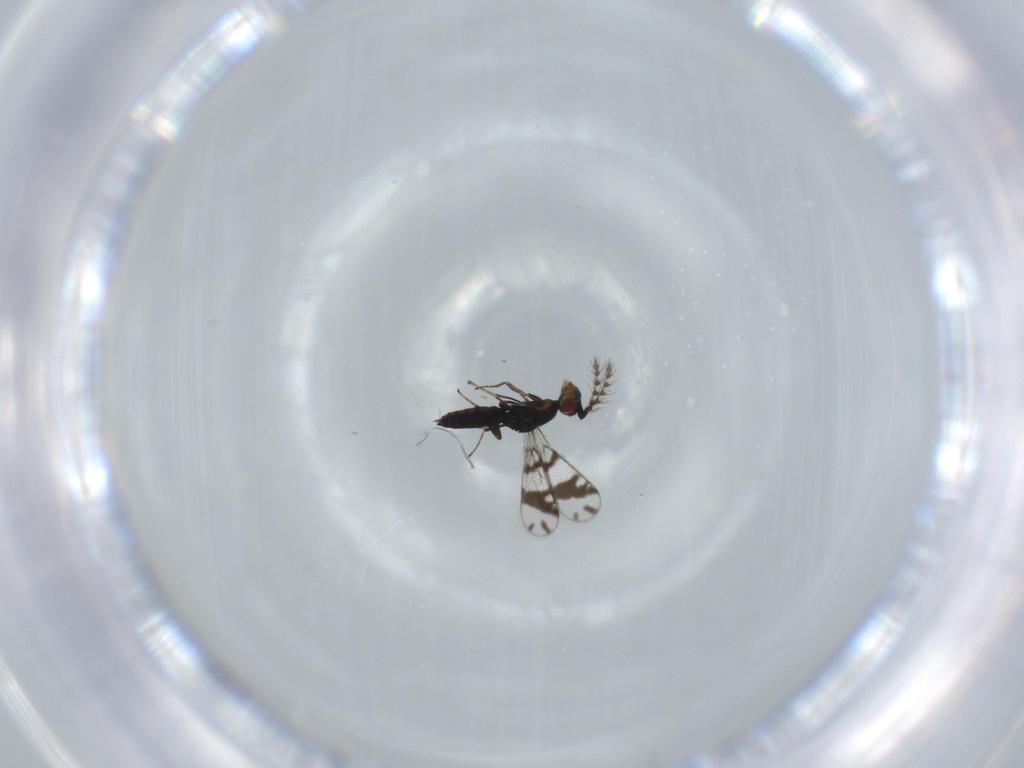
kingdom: Animalia
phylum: Arthropoda
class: Insecta
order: Hymenoptera
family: Eulophidae
